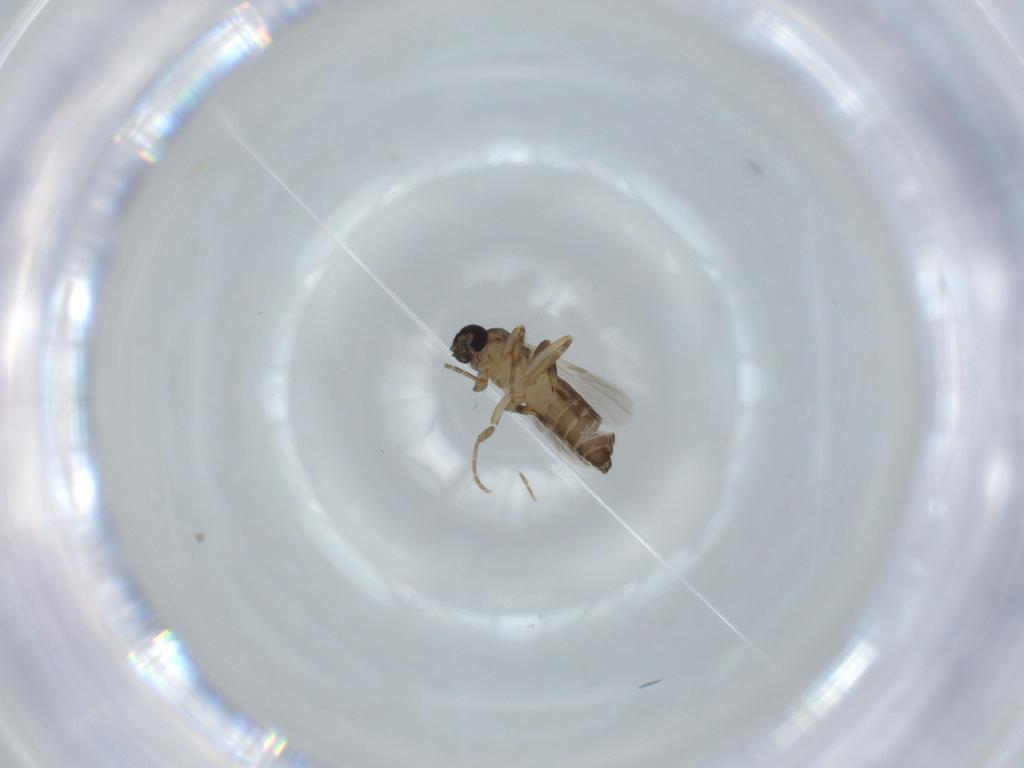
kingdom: Animalia
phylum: Arthropoda
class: Insecta
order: Diptera
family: Ceratopogonidae
